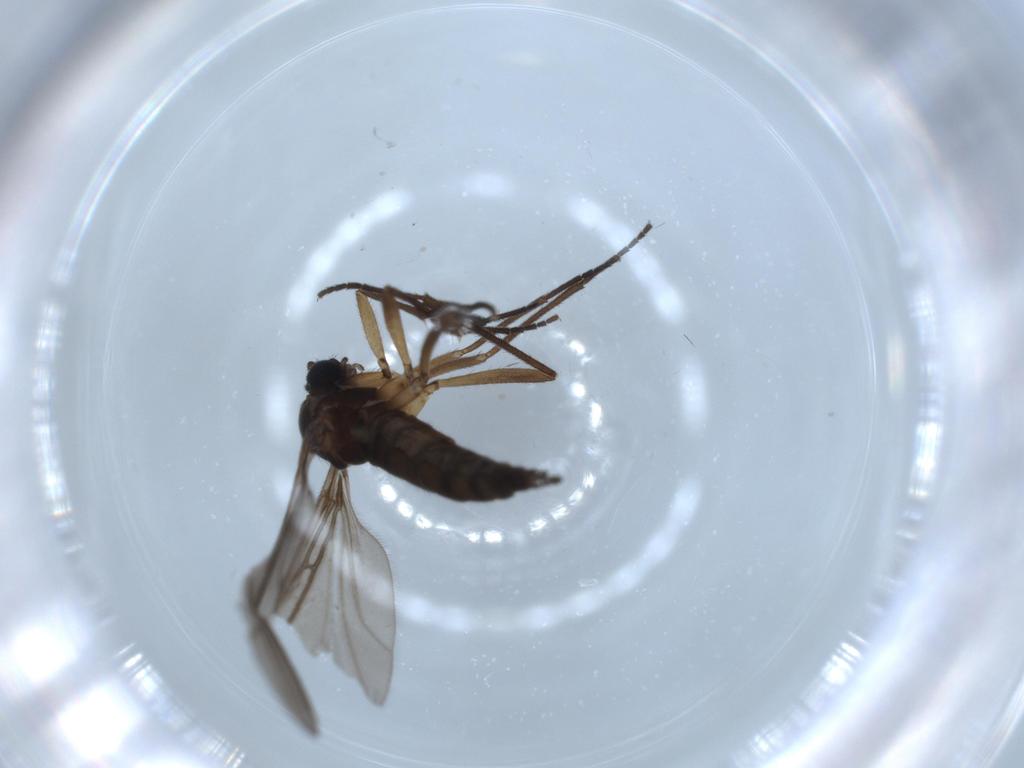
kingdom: Animalia
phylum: Arthropoda
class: Insecta
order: Diptera
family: Sciaridae
